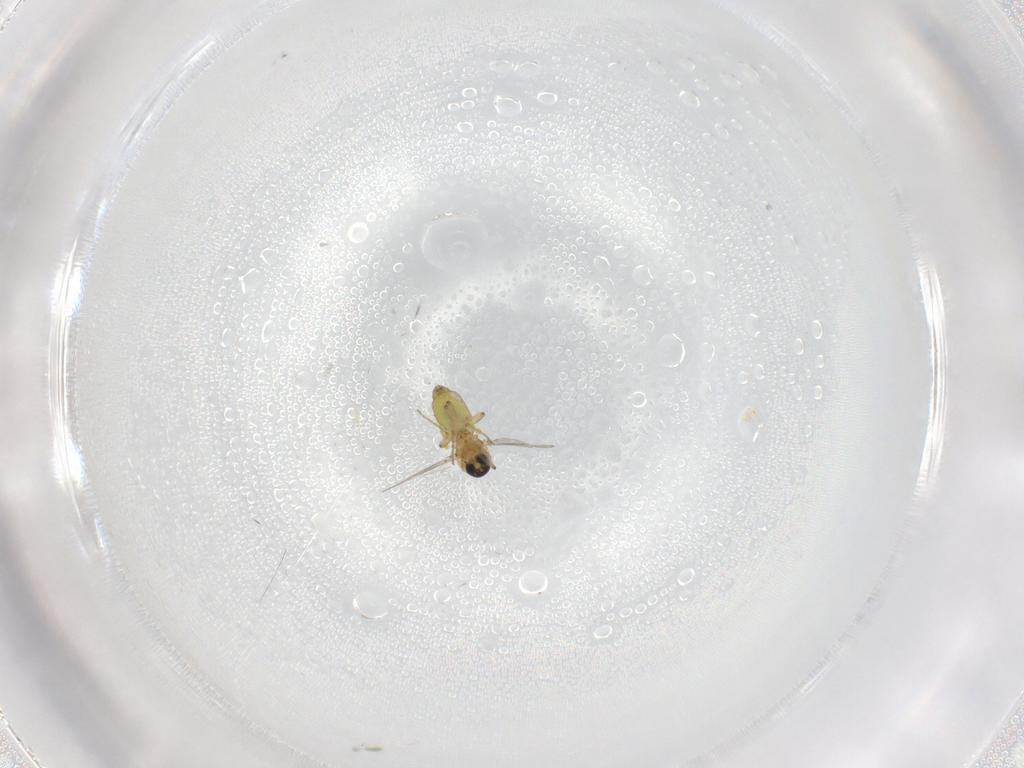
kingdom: Animalia
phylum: Arthropoda
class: Insecta
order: Diptera
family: Ceratopogonidae
